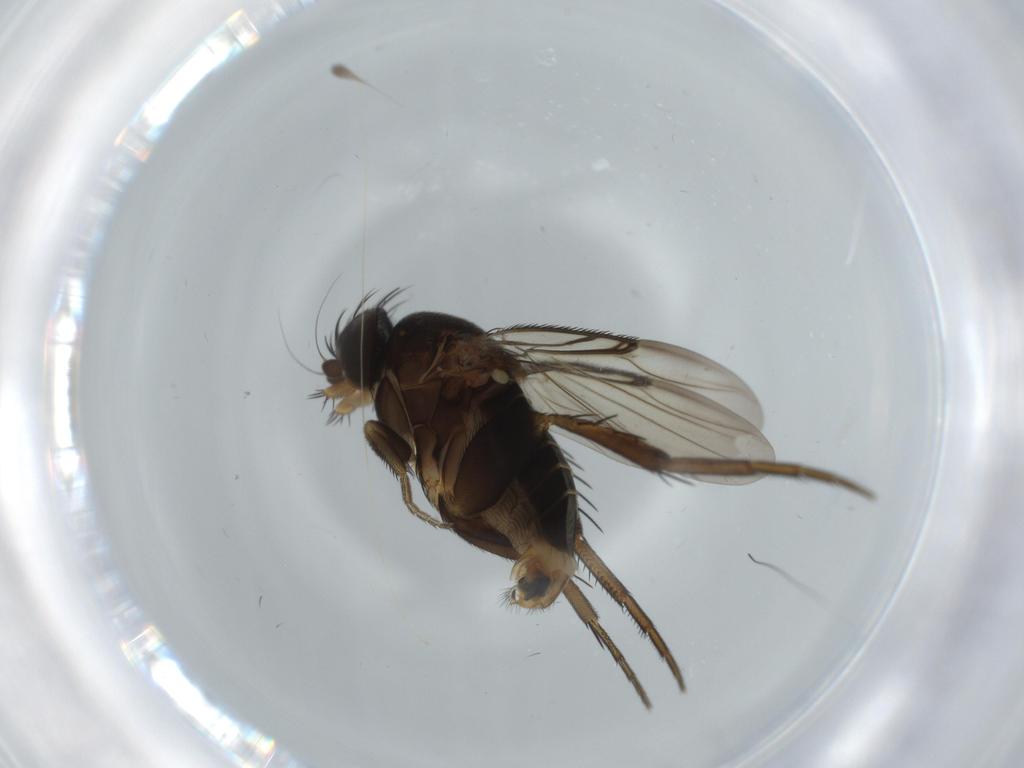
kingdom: Animalia
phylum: Arthropoda
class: Insecta
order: Diptera
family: Phoridae
